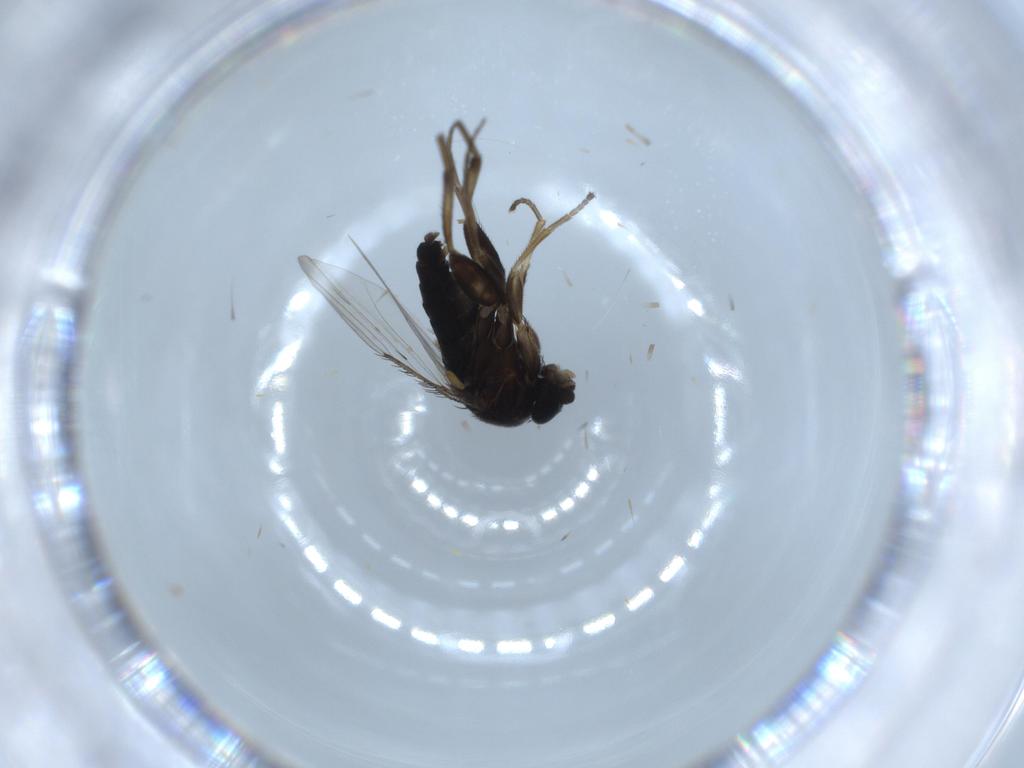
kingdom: Animalia
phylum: Arthropoda
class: Insecta
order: Diptera
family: Phoridae
